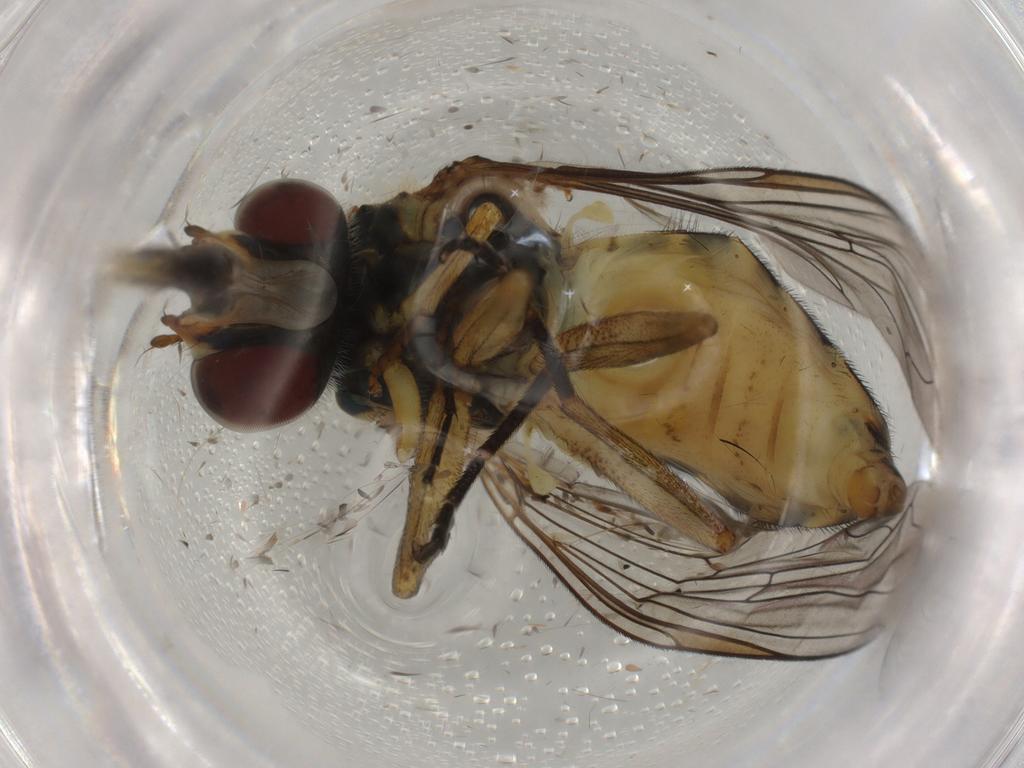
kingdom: Animalia
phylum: Arthropoda
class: Insecta
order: Diptera
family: Syrphidae
